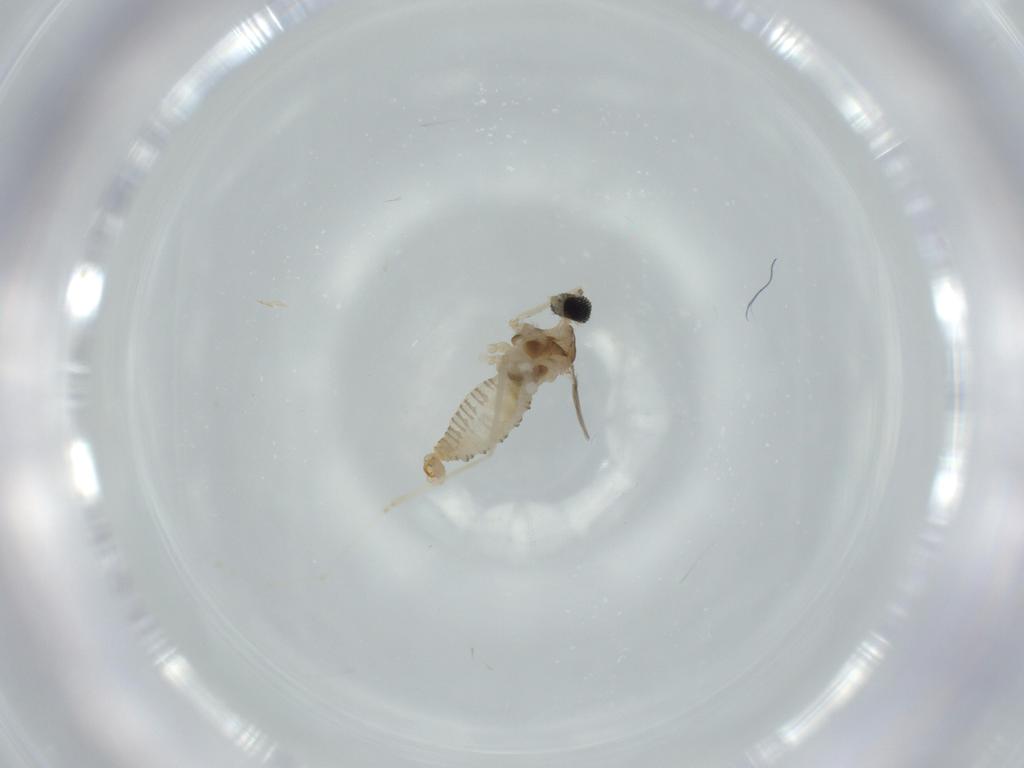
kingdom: Animalia
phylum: Arthropoda
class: Insecta
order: Diptera
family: Cecidomyiidae
